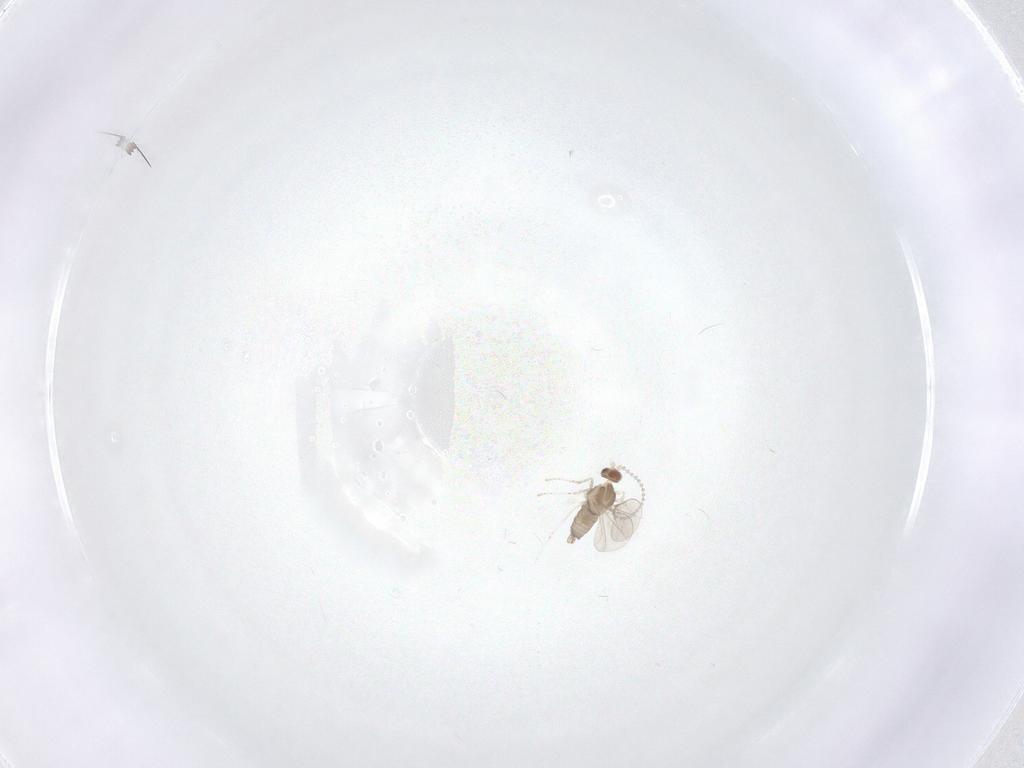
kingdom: Animalia
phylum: Arthropoda
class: Insecta
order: Diptera
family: Cecidomyiidae
